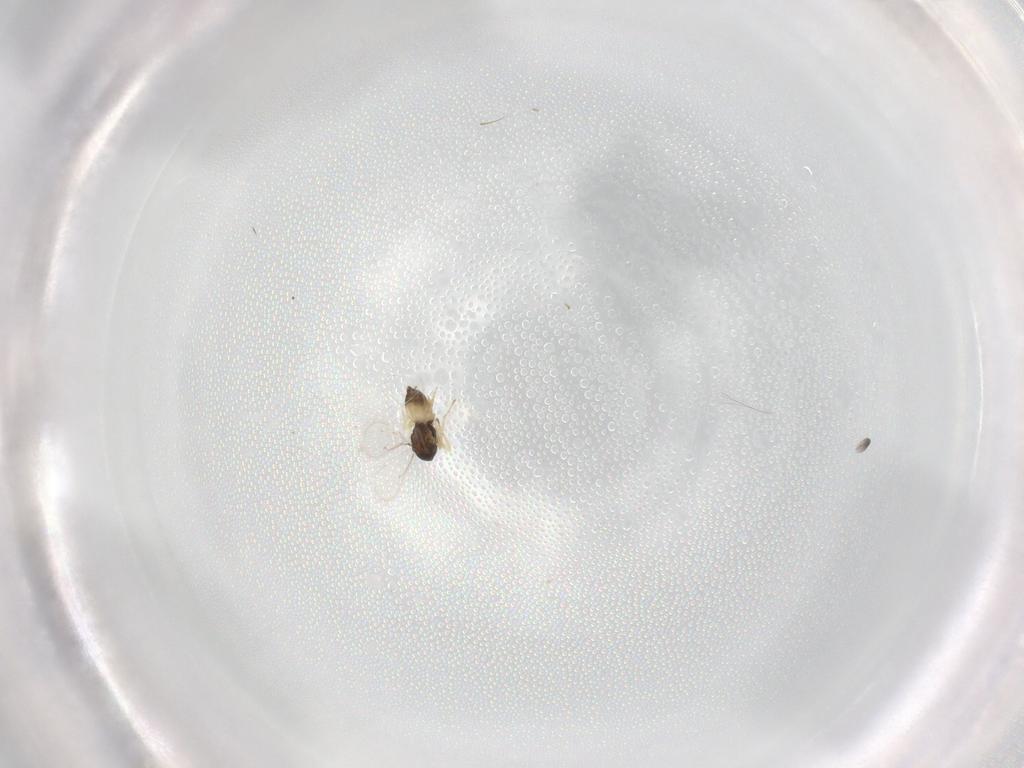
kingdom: Animalia
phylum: Arthropoda
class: Insecta
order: Hymenoptera
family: Eulophidae
